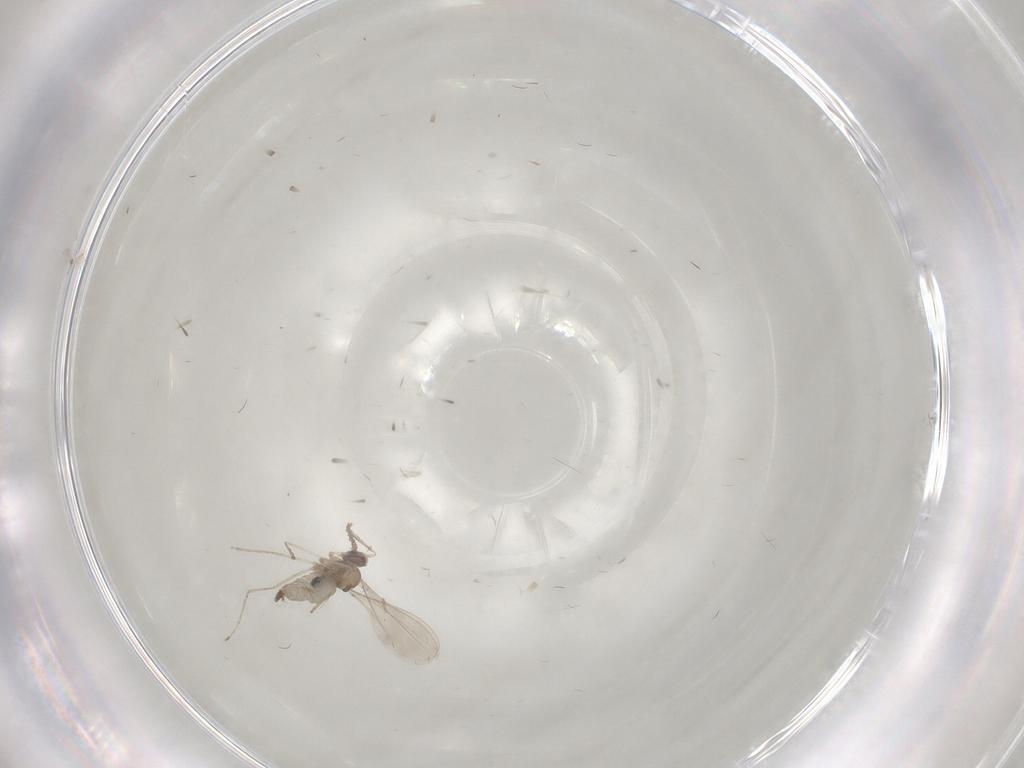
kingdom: Animalia
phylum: Arthropoda
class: Insecta
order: Diptera
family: Cecidomyiidae
